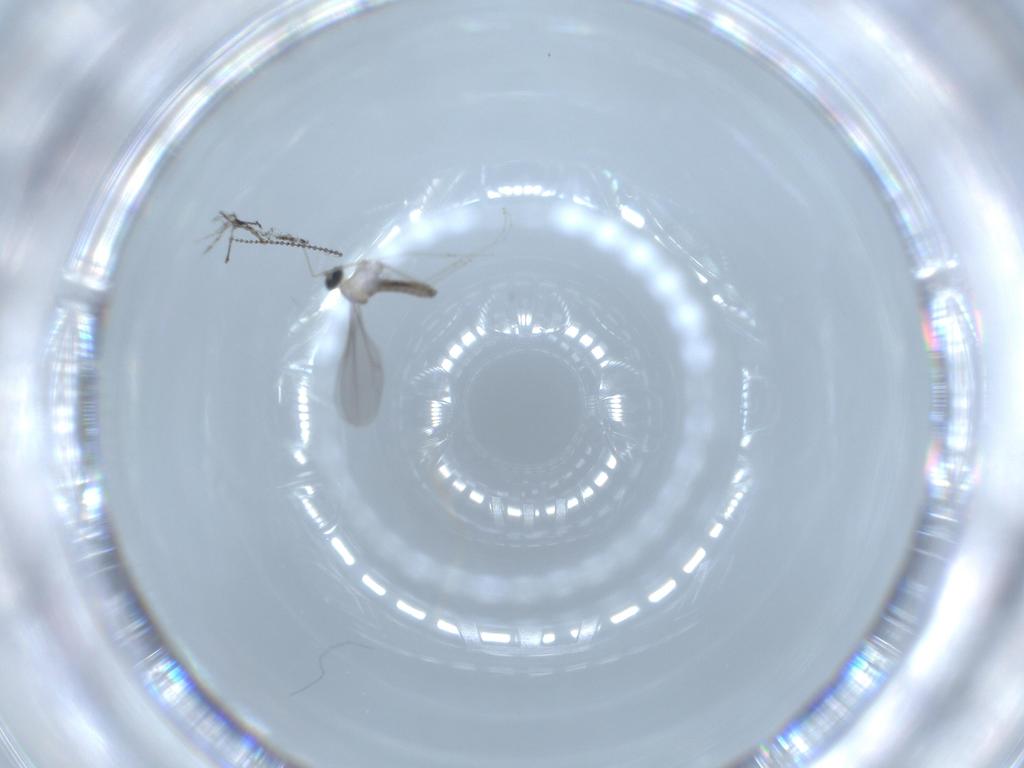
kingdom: Animalia
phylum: Arthropoda
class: Insecta
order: Diptera
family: Cecidomyiidae
